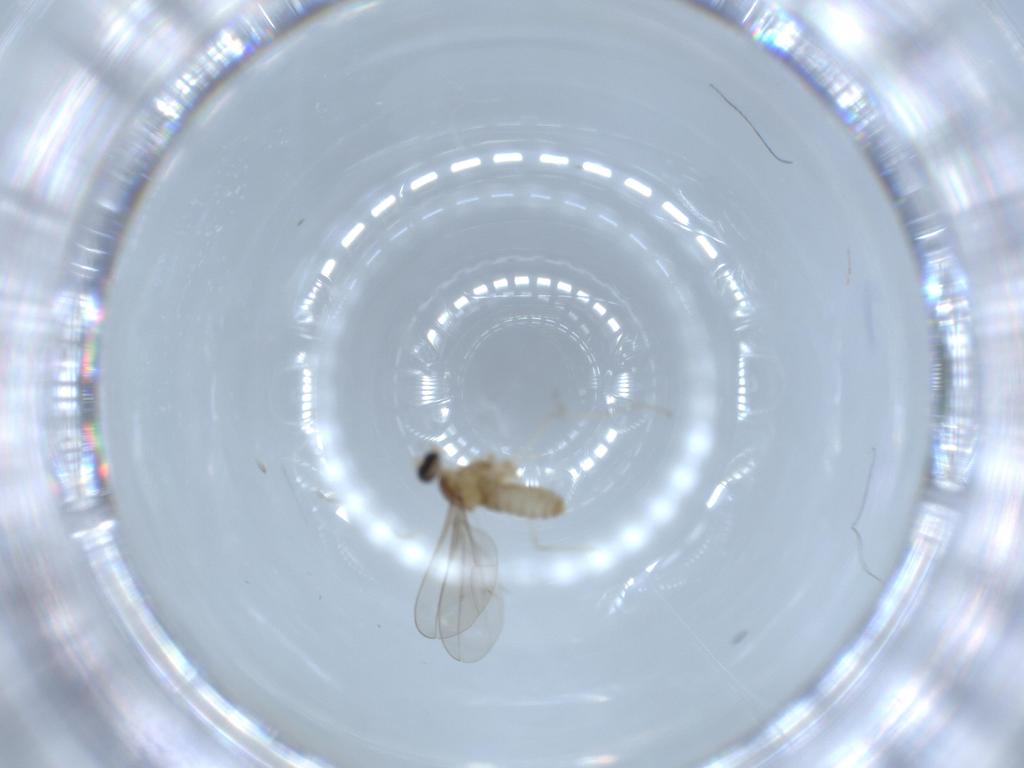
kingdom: Animalia
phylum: Arthropoda
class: Insecta
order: Diptera
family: Cecidomyiidae
